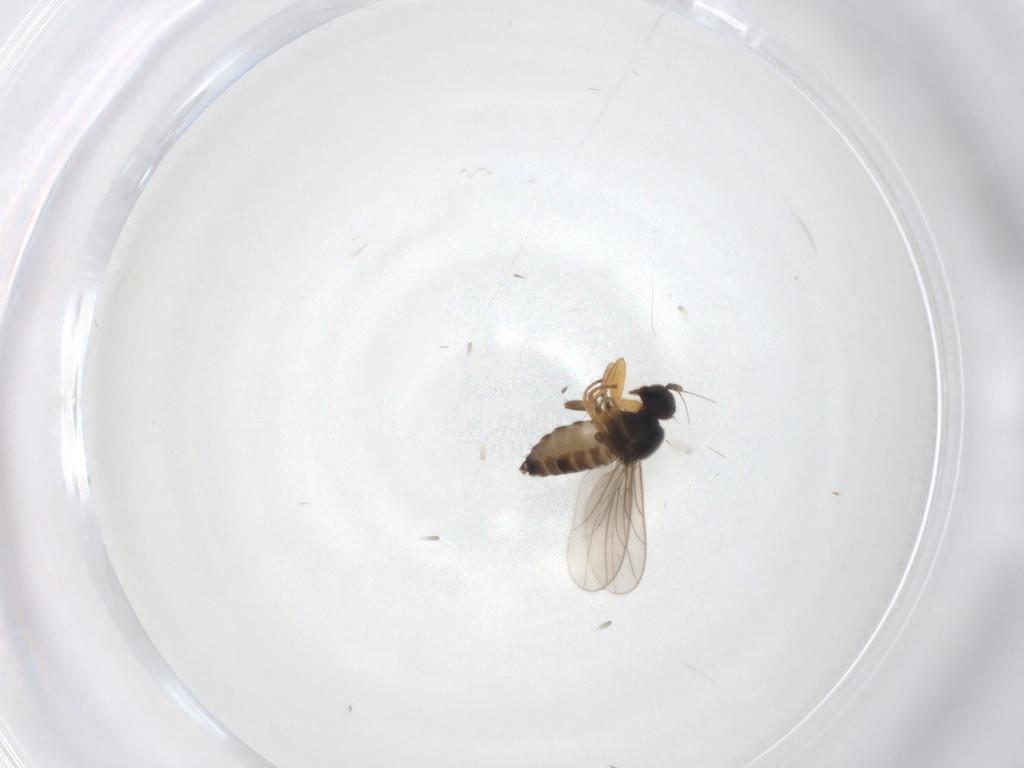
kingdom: Animalia
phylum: Arthropoda
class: Insecta
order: Diptera
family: Hybotidae
